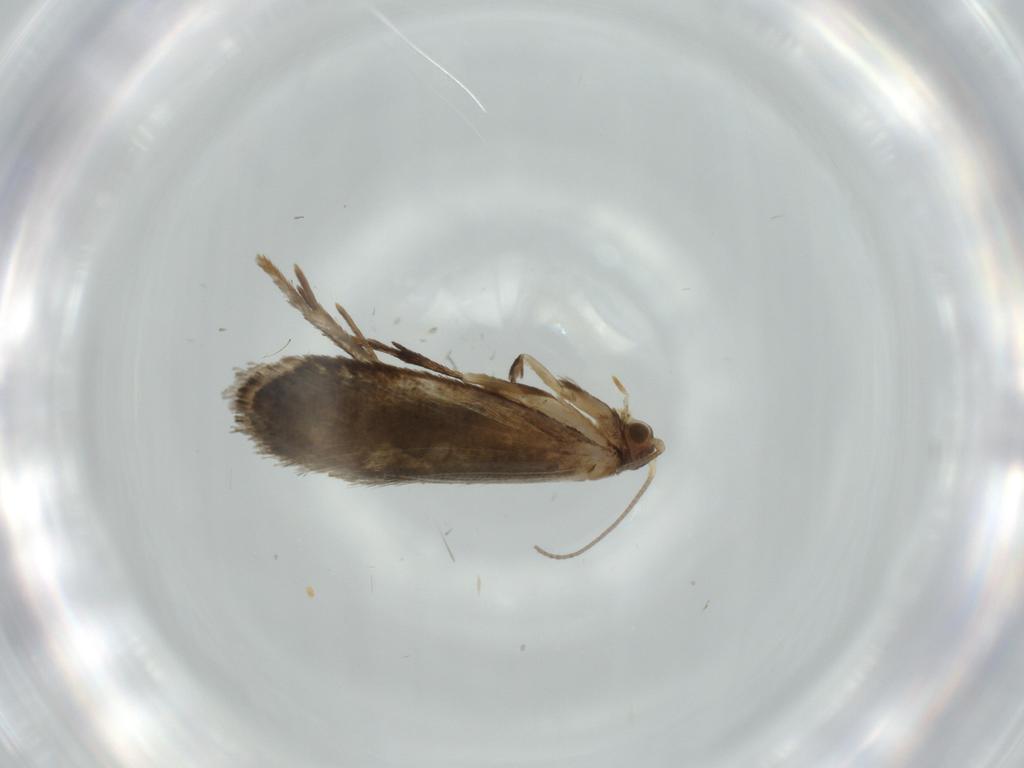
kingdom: Animalia
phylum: Arthropoda
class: Insecta
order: Lepidoptera
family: Tineidae
